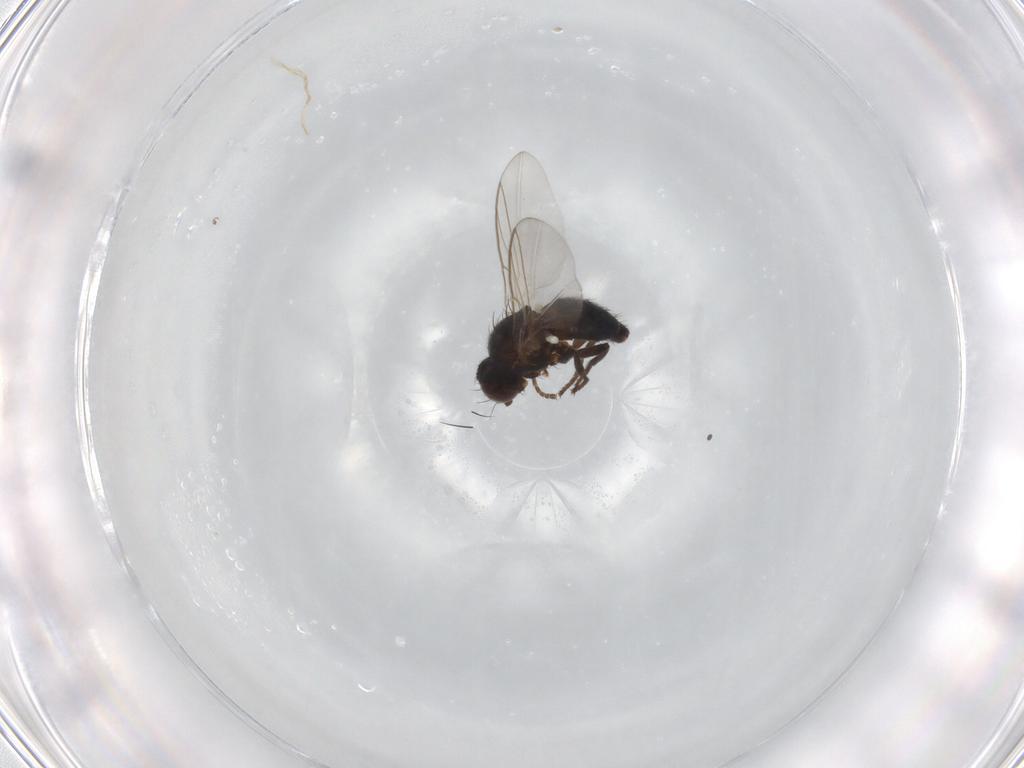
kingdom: Animalia
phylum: Arthropoda
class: Insecta
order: Diptera
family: Agromyzidae
